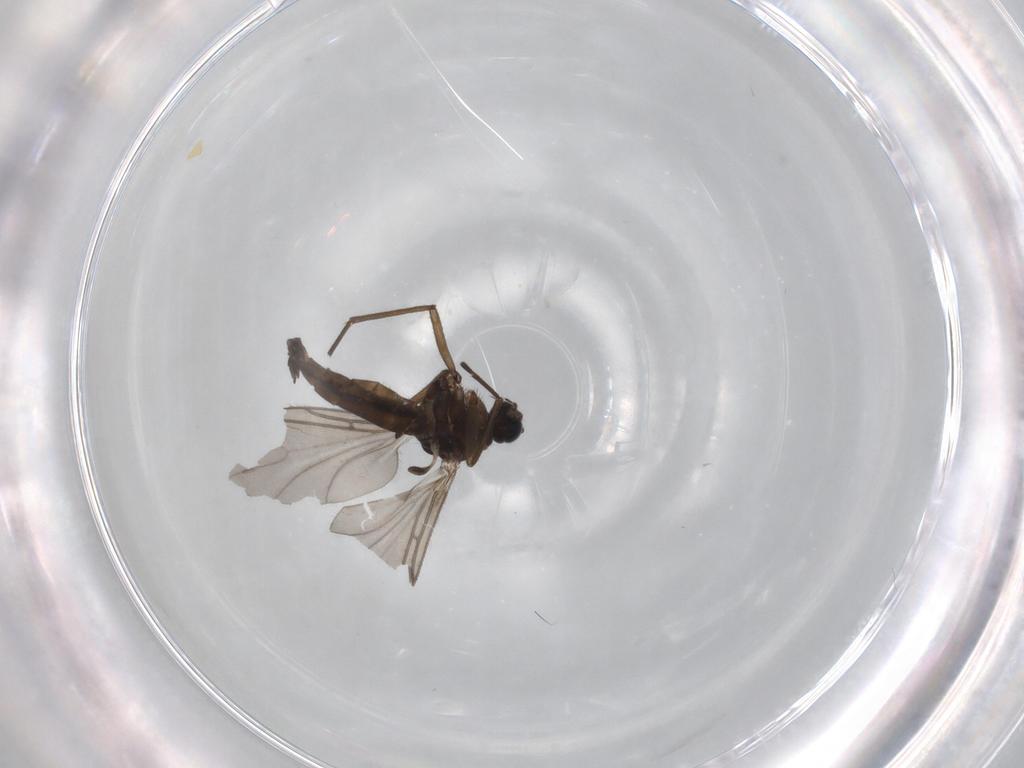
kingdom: Animalia
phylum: Arthropoda
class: Insecta
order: Diptera
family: Sciaridae
